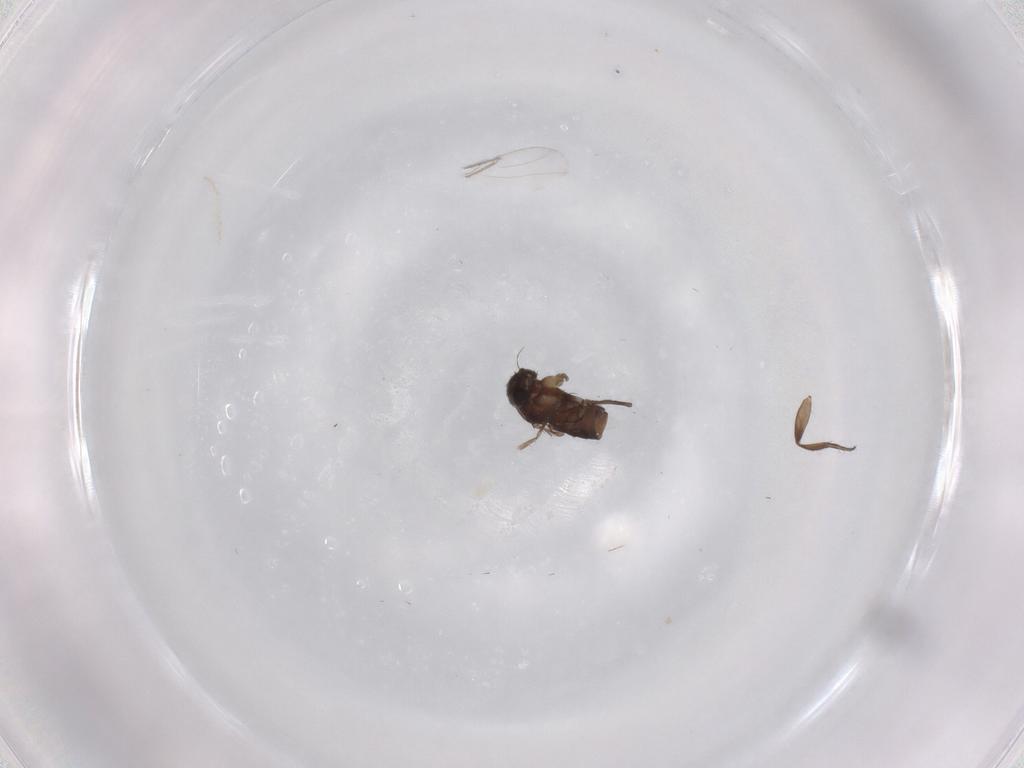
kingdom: Animalia
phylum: Arthropoda
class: Insecta
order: Diptera
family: Phoridae
